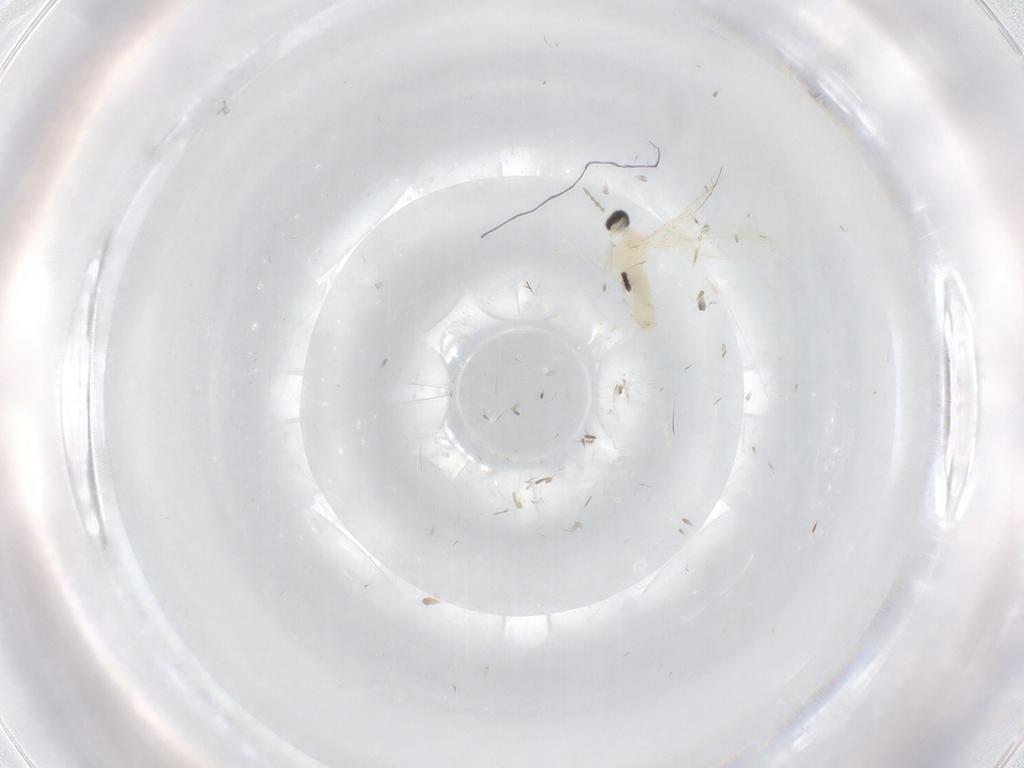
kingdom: Animalia
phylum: Arthropoda
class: Insecta
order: Diptera
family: Cecidomyiidae
